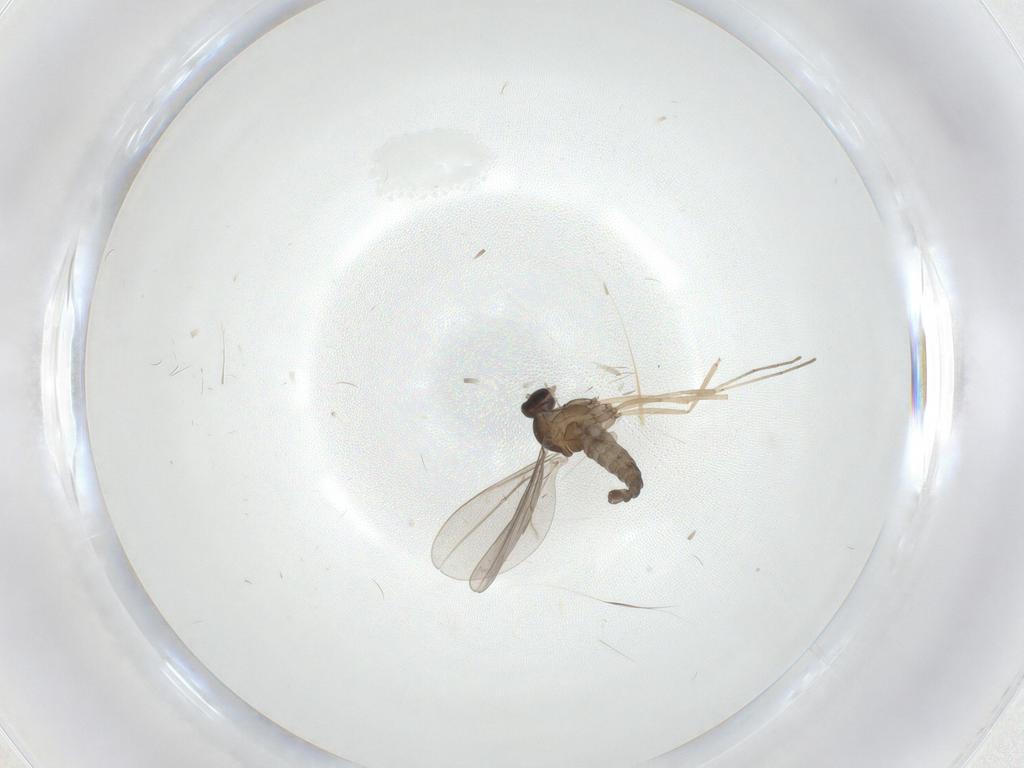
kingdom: Animalia
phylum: Arthropoda
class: Insecta
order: Diptera
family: Cecidomyiidae
